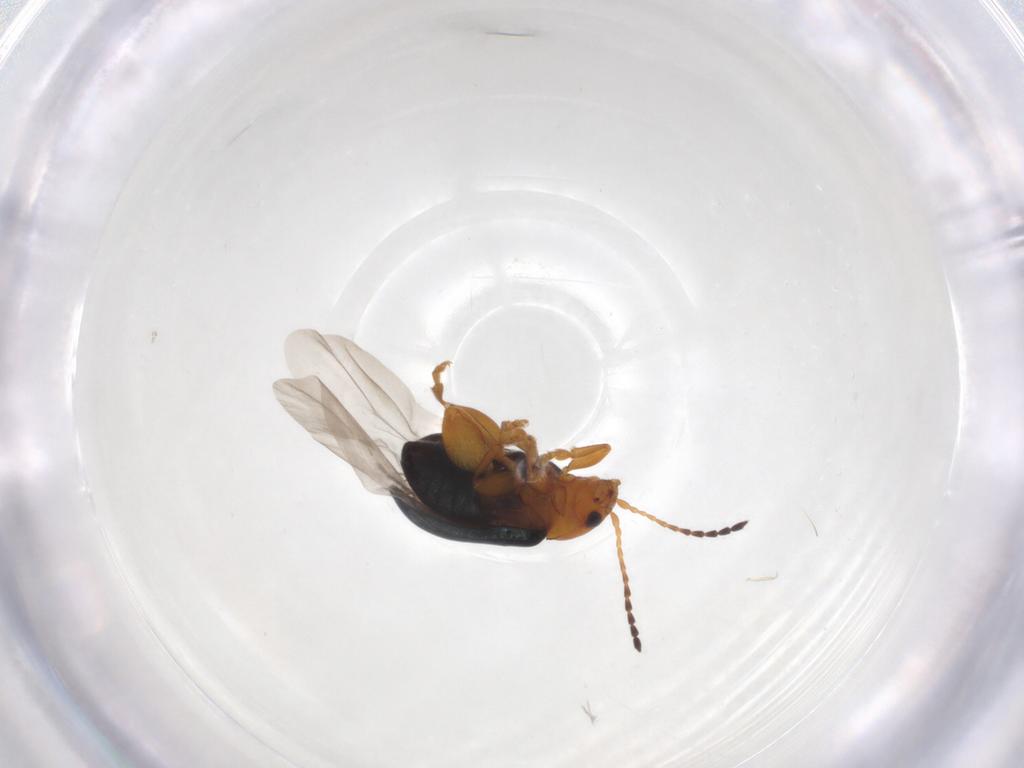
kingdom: Animalia
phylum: Arthropoda
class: Insecta
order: Coleoptera
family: Chrysomelidae
